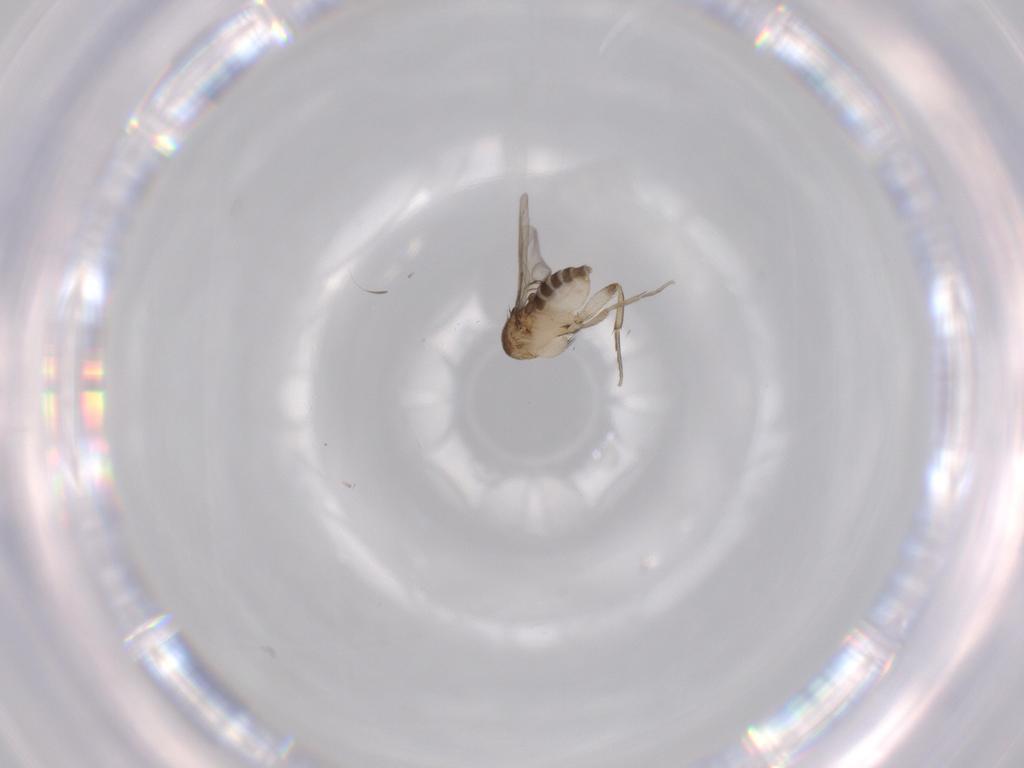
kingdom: Animalia
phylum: Arthropoda
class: Insecta
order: Diptera
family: Phoridae
